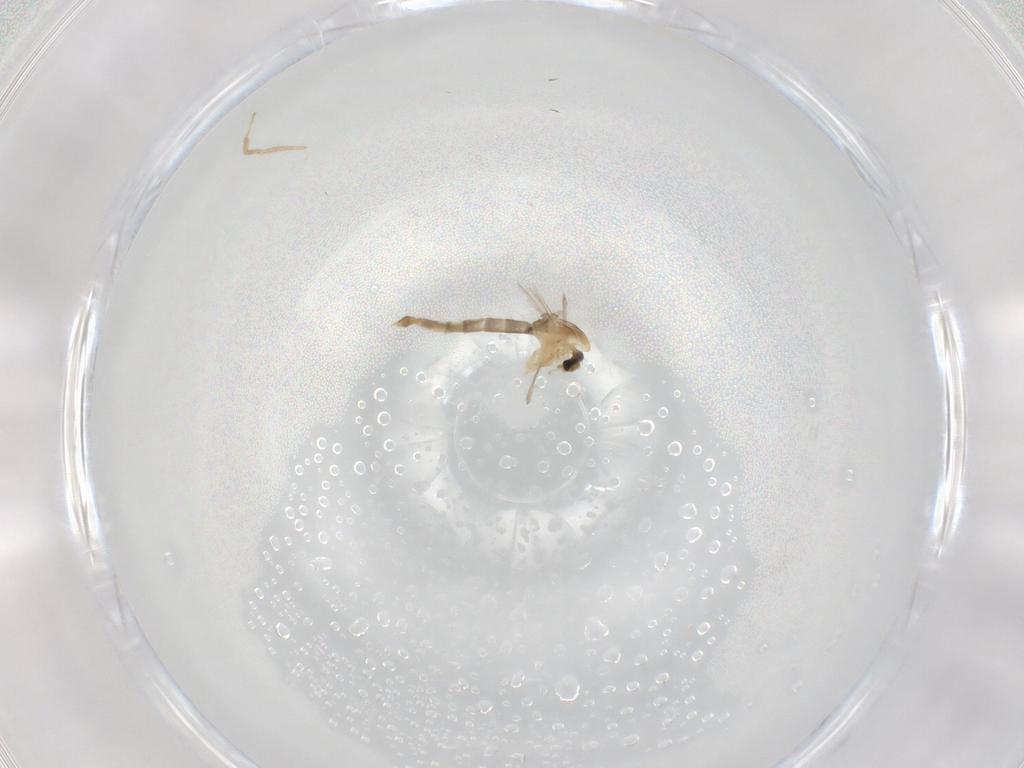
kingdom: Animalia
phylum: Arthropoda
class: Insecta
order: Diptera
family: Chironomidae
